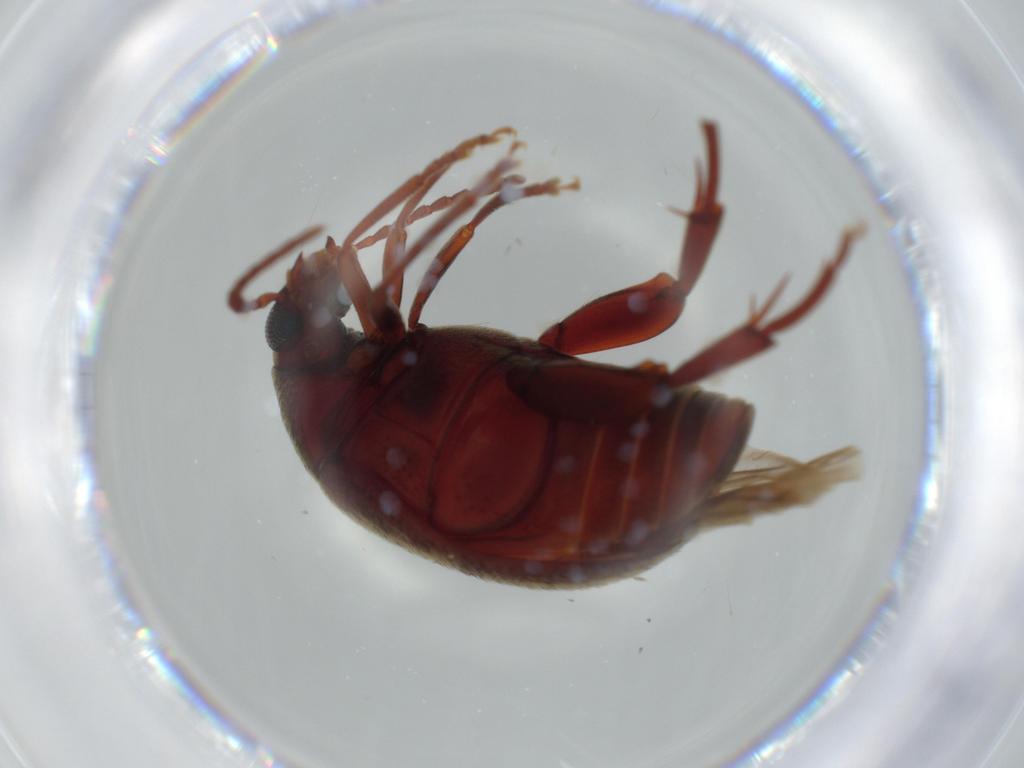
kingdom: Animalia
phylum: Arthropoda
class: Insecta
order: Coleoptera
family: Chrysomelidae
